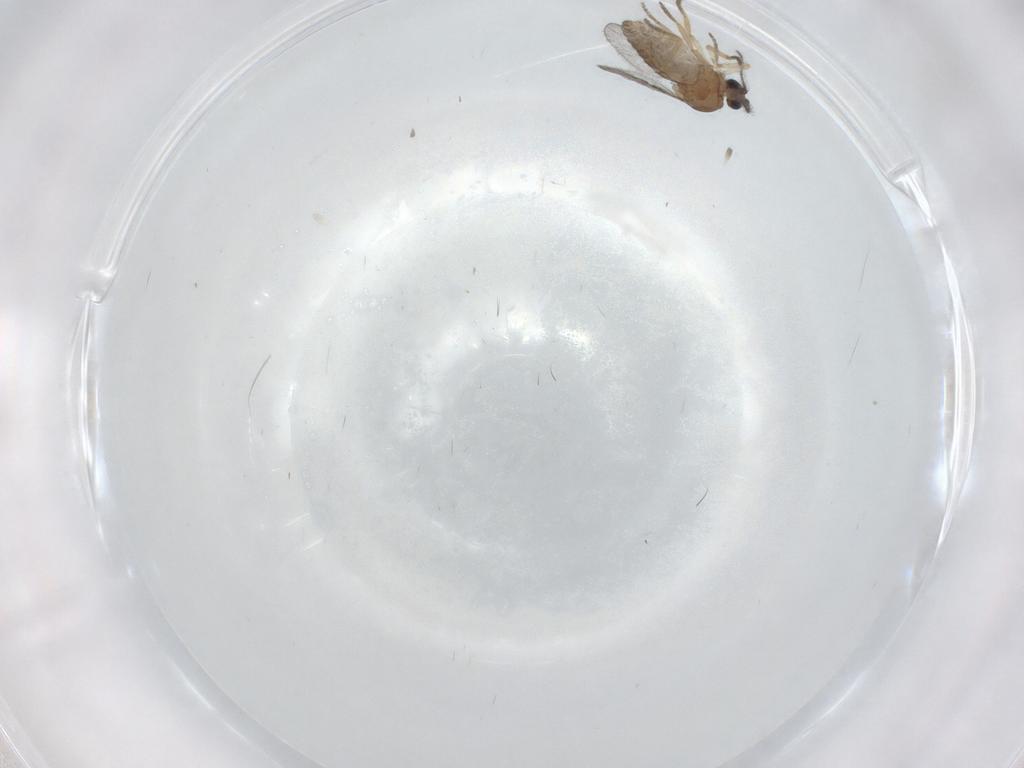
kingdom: Animalia
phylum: Arthropoda
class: Insecta
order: Diptera
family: Ceratopogonidae
